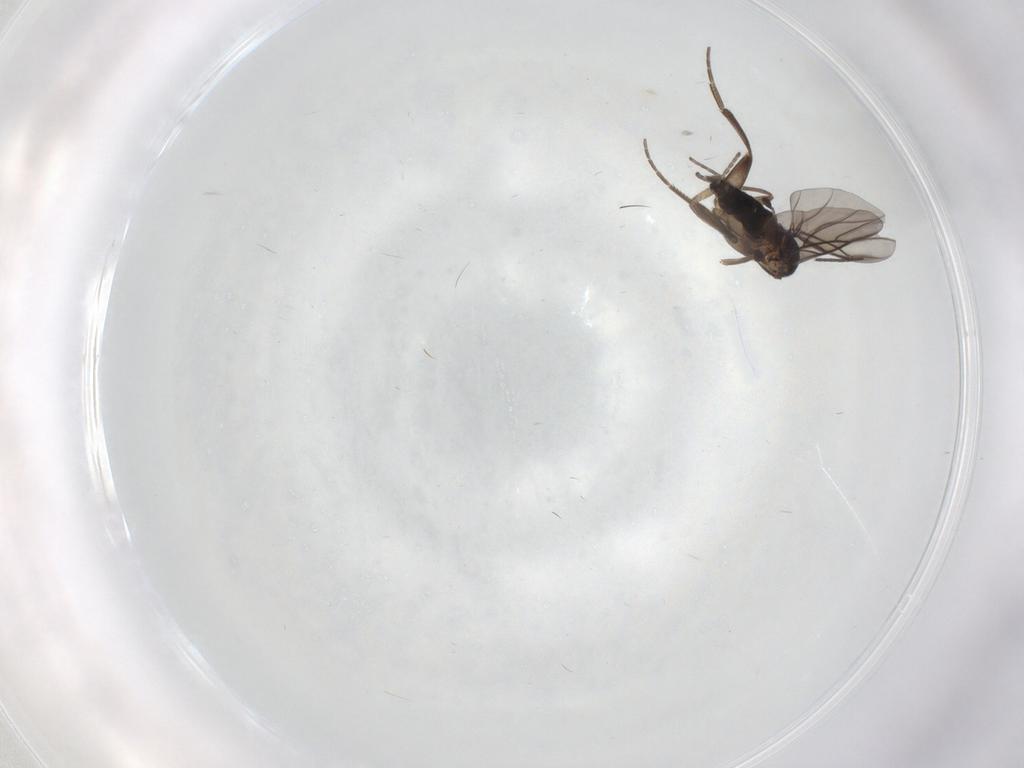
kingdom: Animalia
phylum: Arthropoda
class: Insecta
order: Diptera
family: Phoridae
